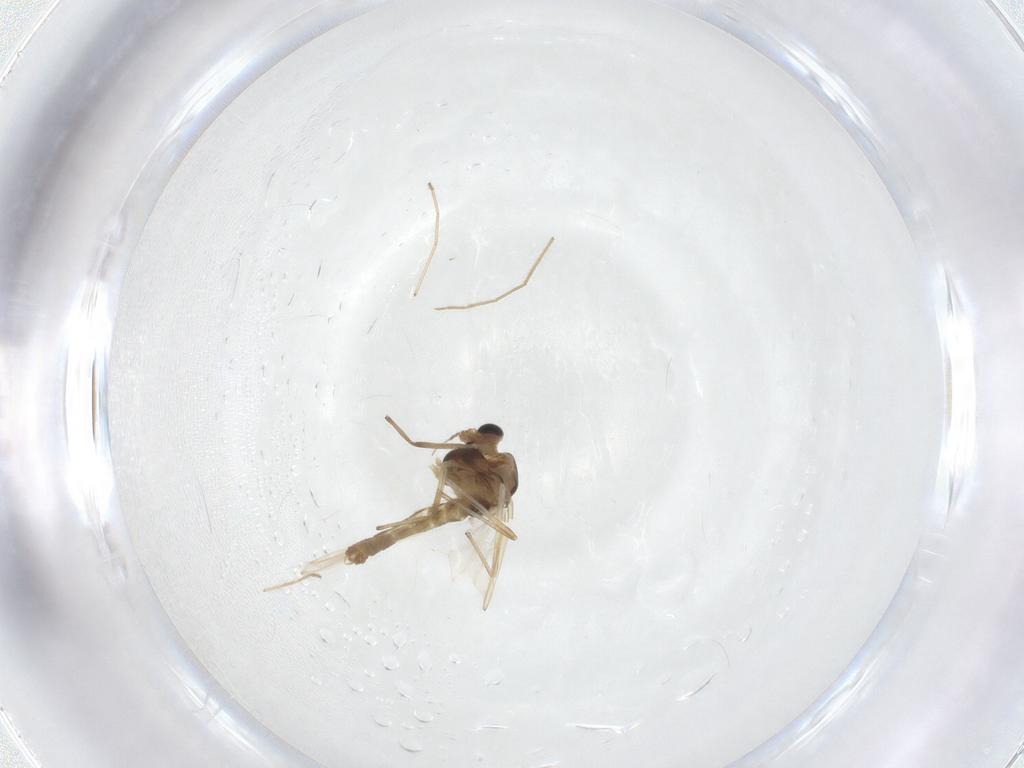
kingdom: Animalia
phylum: Arthropoda
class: Insecta
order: Diptera
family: Chironomidae
